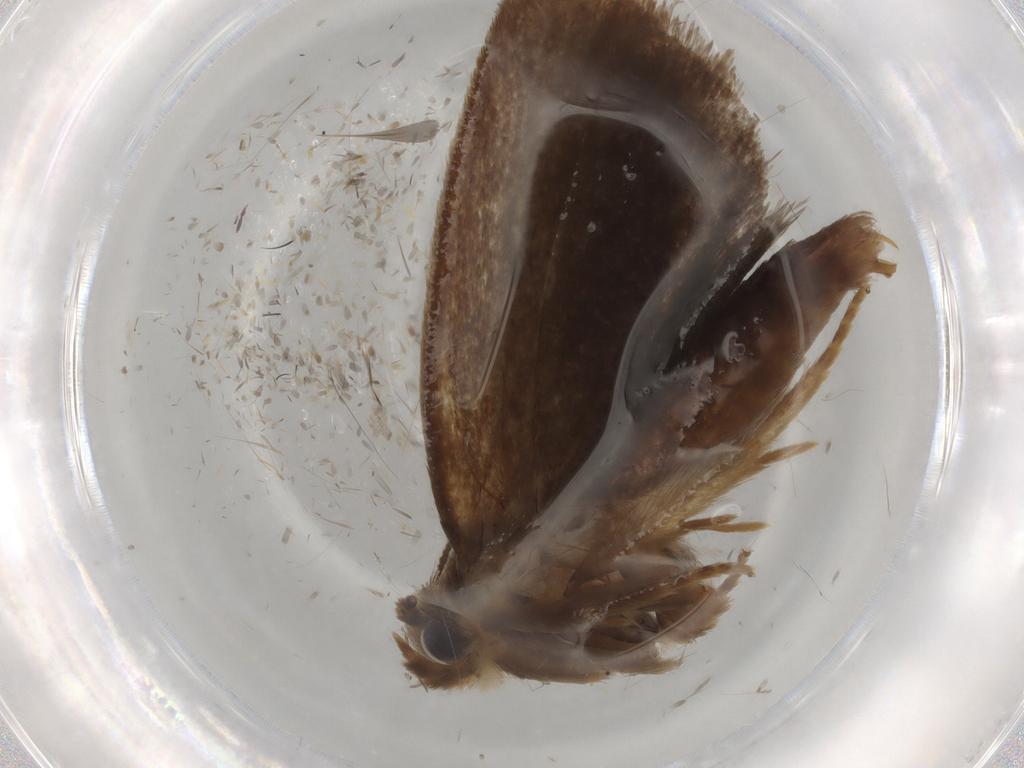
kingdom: Animalia
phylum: Arthropoda
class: Insecta
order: Lepidoptera
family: Tineidae
